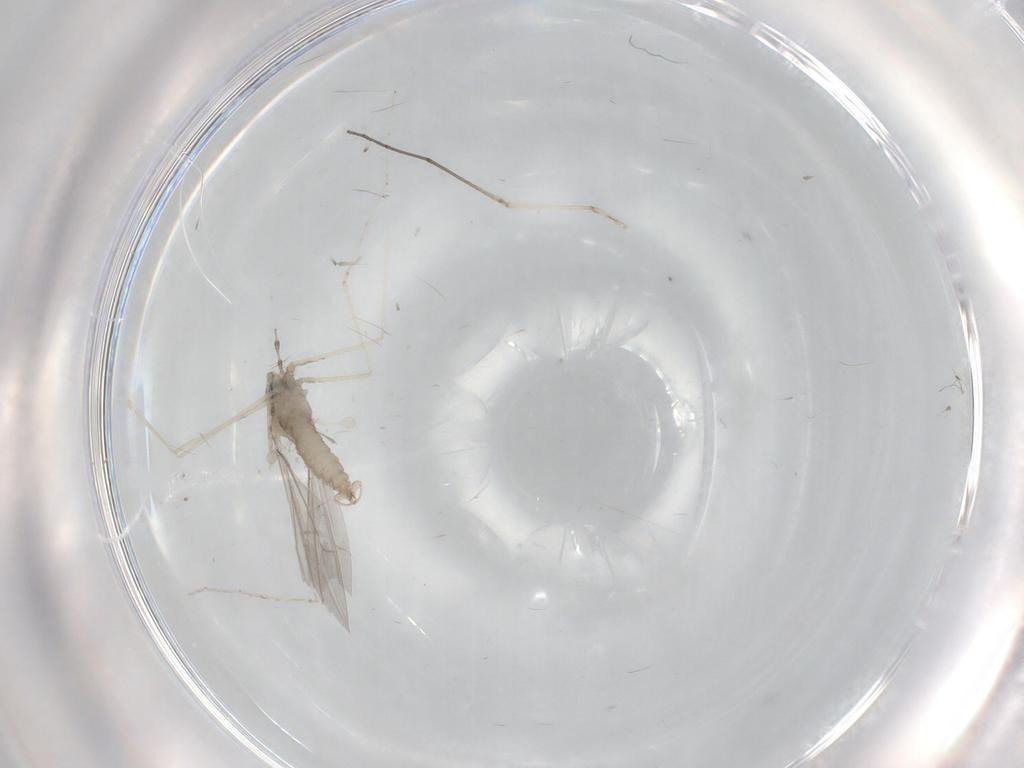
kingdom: Animalia
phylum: Arthropoda
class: Insecta
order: Diptera
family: Cecidomyiidae
